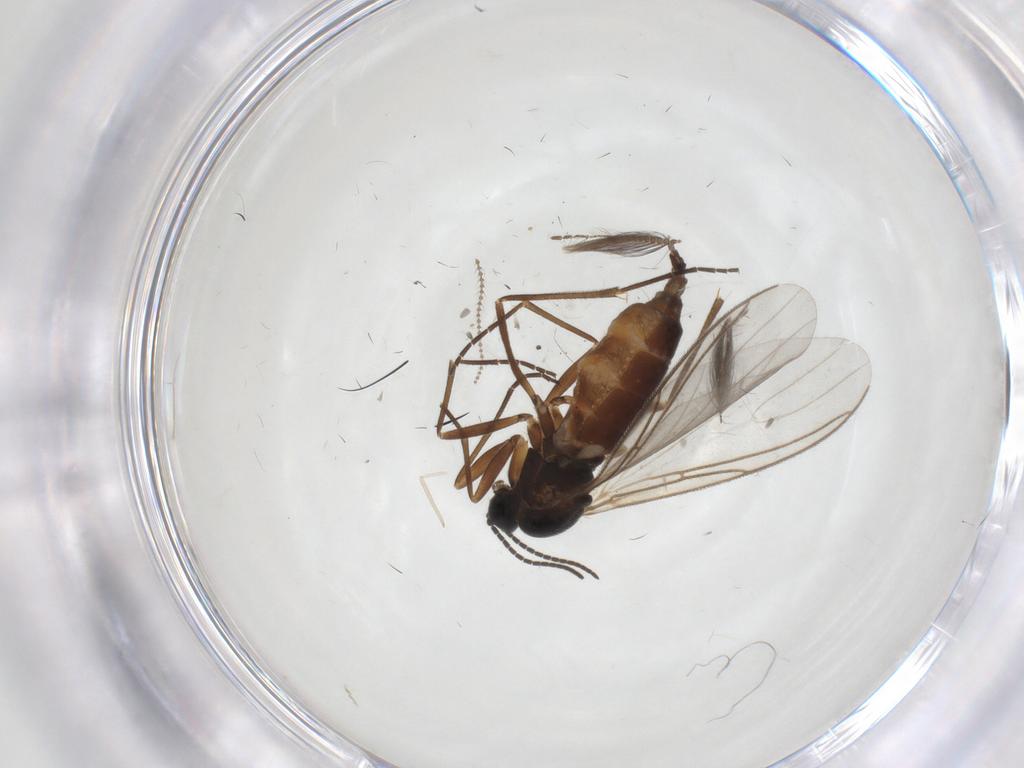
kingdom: Animalia
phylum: Arthropoda
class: Insecta
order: Diptera
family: Sciaridae
